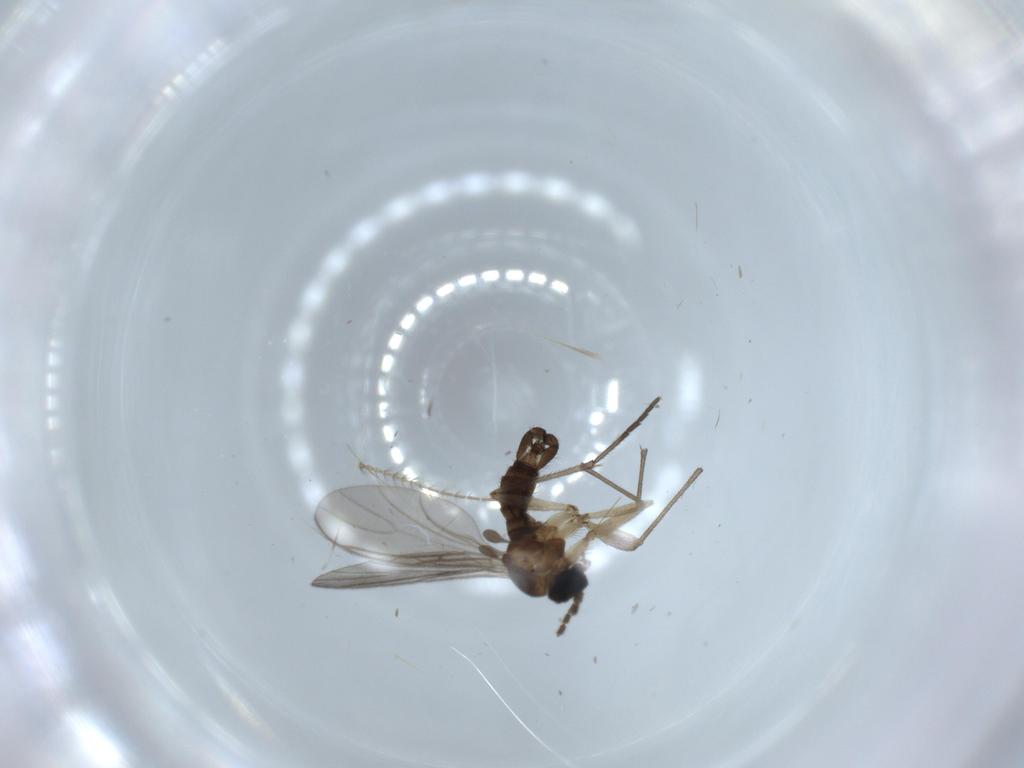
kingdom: Animalia
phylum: Arthropoda
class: Insecta
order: Diptera
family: Sciaridae
